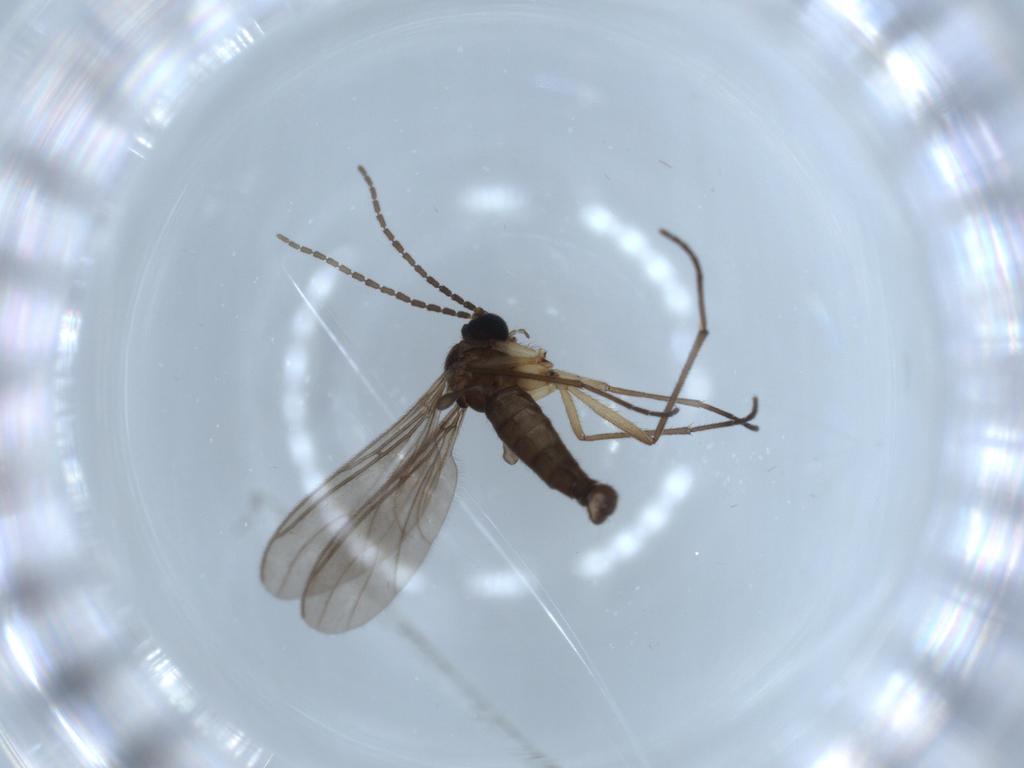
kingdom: Animalia
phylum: Arthropoda
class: Insecta
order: Diptera
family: Sciaridae
